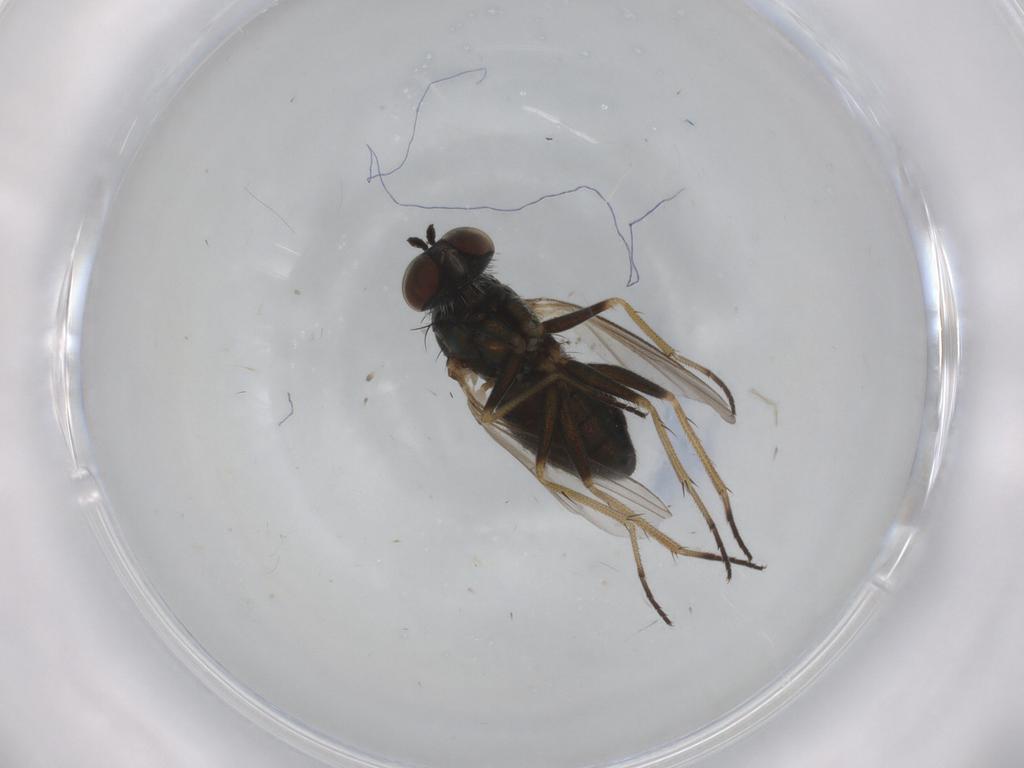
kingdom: Animalia
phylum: Arthropoda
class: Insecta
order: Diptera
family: Dolichopodidae
